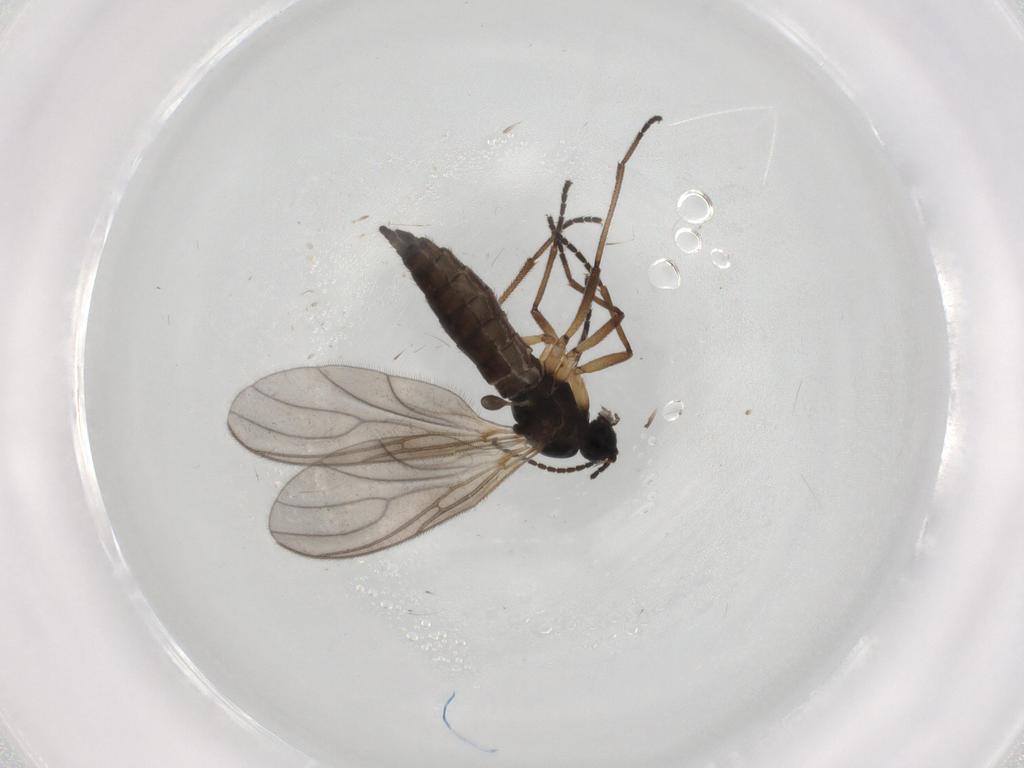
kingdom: Animalia
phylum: Arthropoda
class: Insecta
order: Diptera
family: Sciaridae
